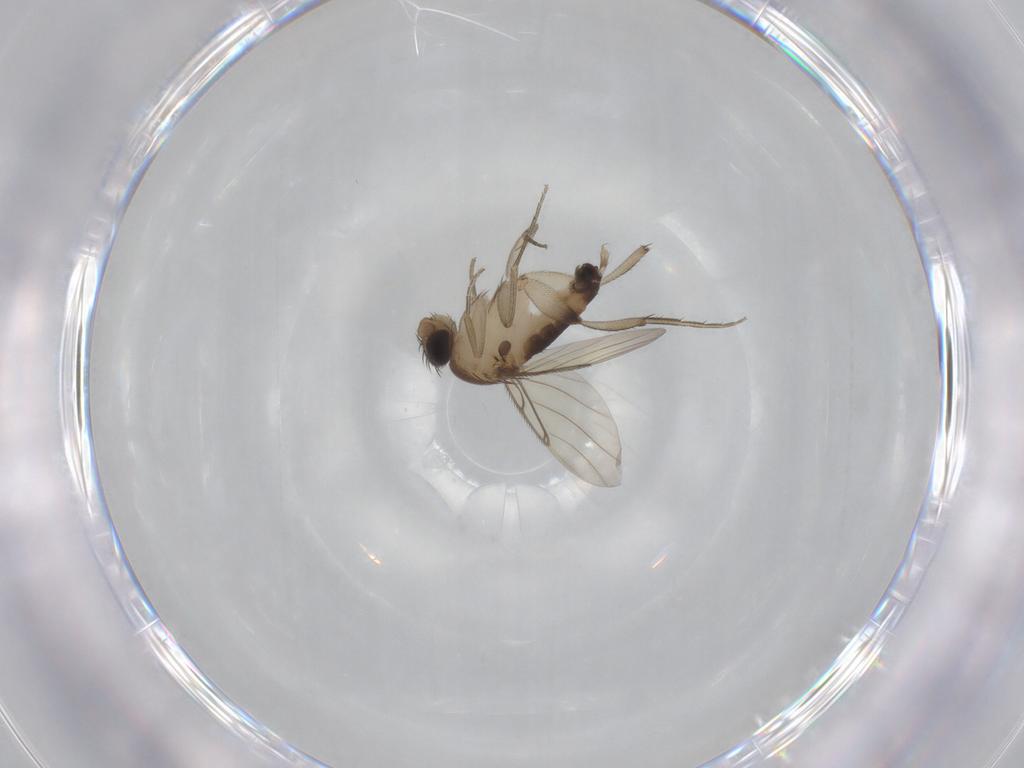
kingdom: Animalia
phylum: Arthropoda
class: Insecta
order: Diptera
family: Phoridae
